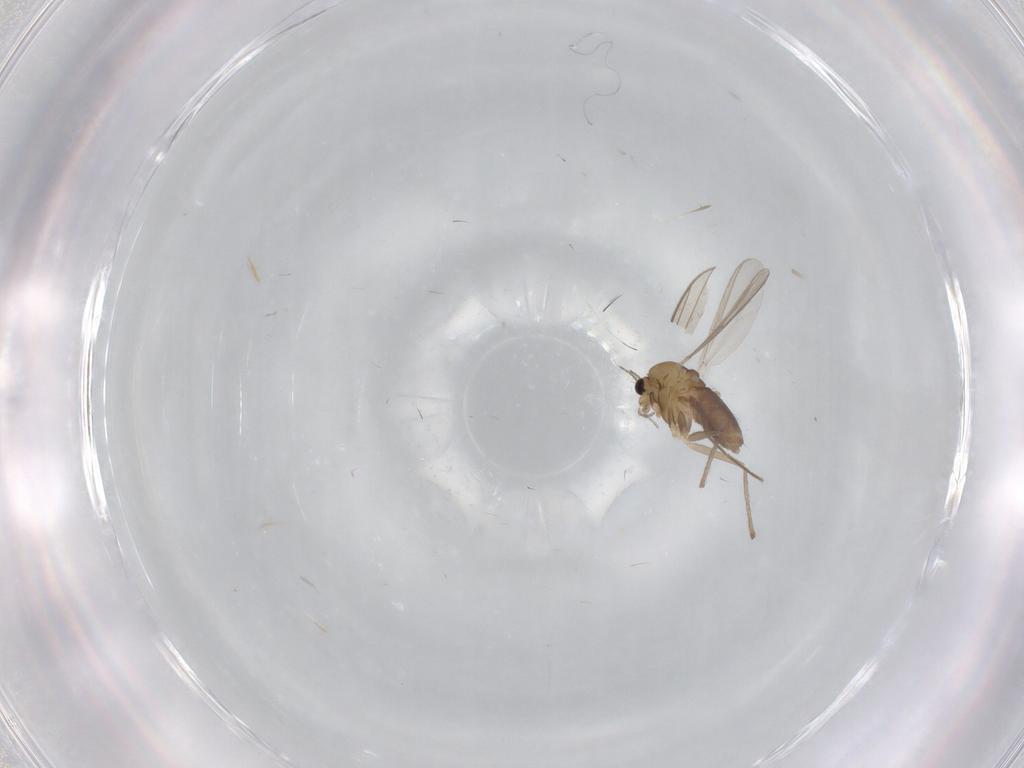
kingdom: Animalia
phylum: Arthropoda
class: Insecta
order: Diptera
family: Chironomidae
